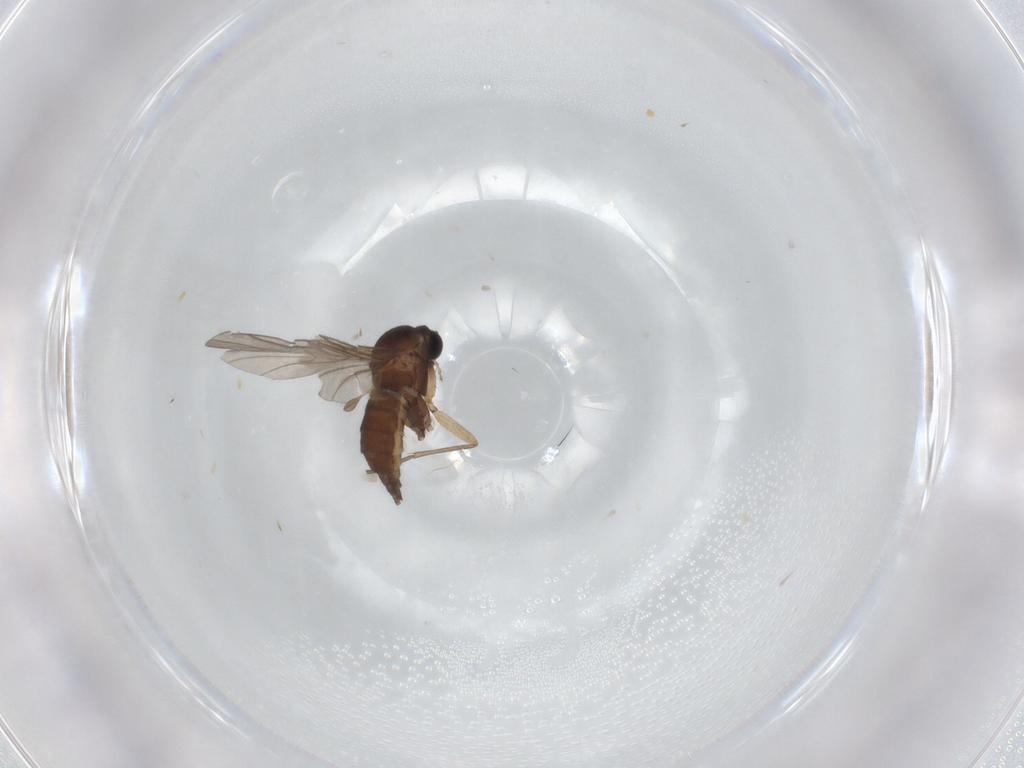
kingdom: Animalia
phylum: Arthropoda
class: Insecta
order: Diptera
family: Sciaridae
